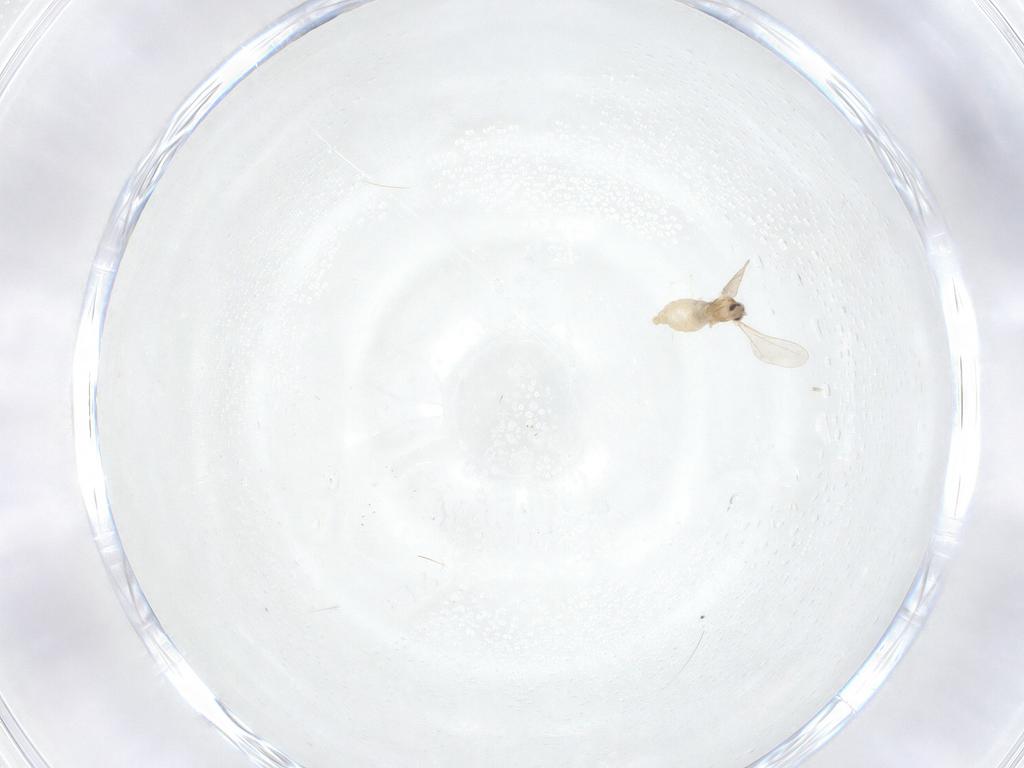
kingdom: Animalia
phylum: Arthropoda
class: Insecta
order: Diptera
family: Cecidomyiidae
